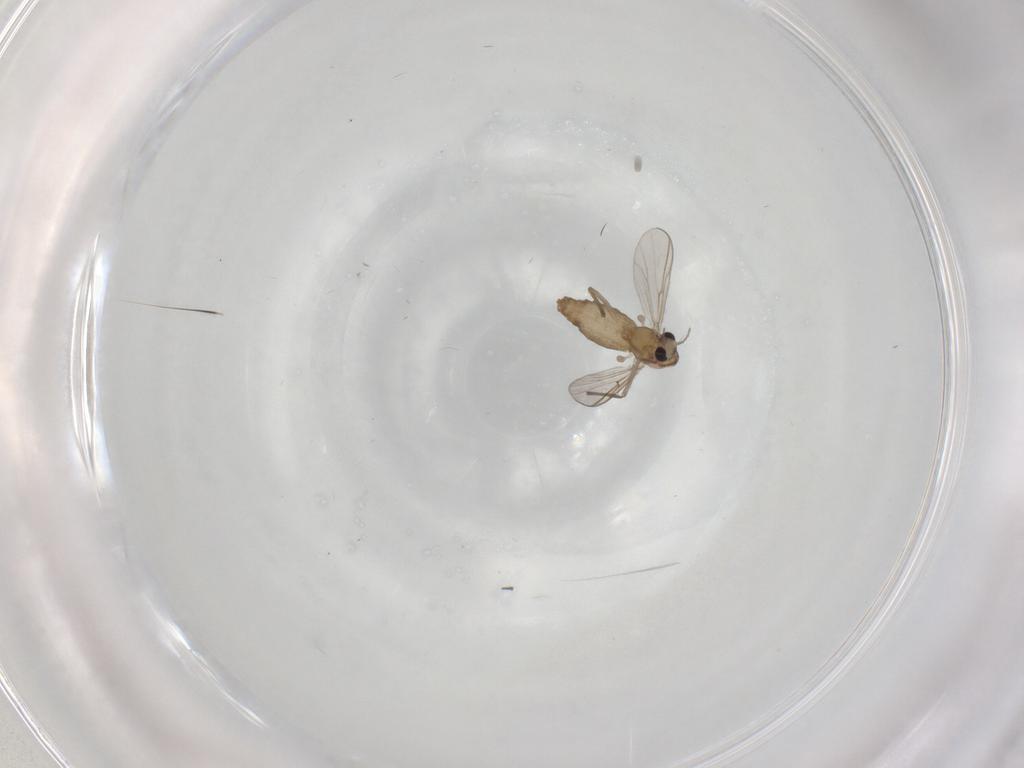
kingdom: Animalia
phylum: Arthropoda
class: Insecta
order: Diptera
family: Chironomidae
